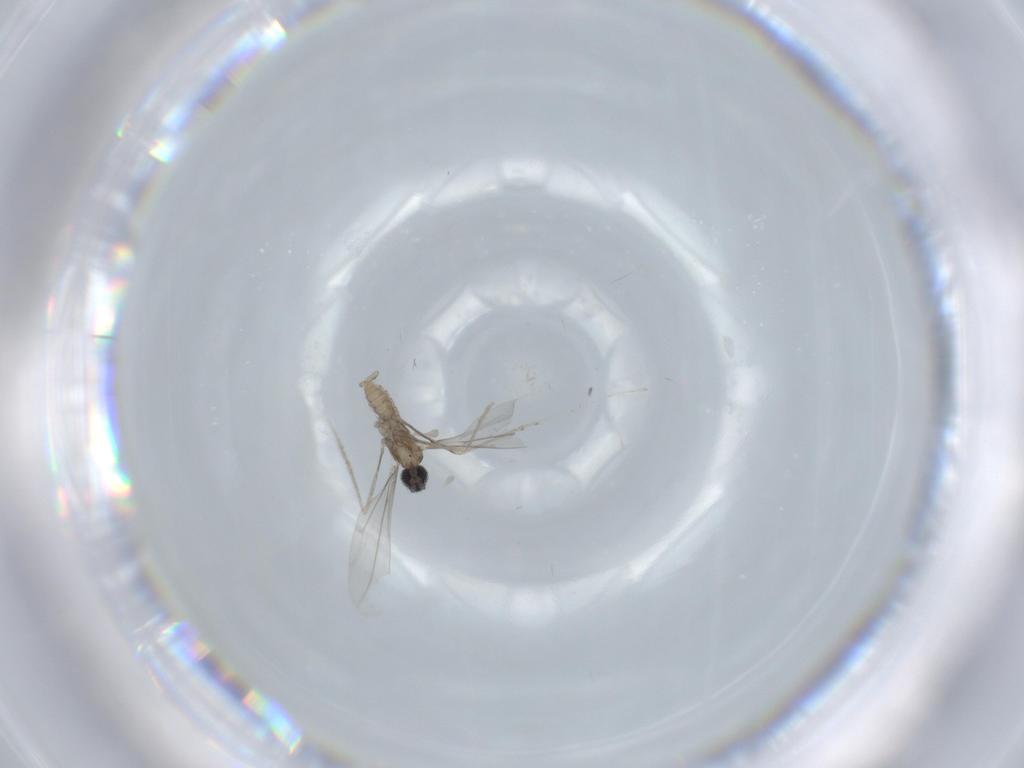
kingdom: Animalia
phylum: Arthropoda
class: Insecta
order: Diptera
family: Cecidomyiidae
